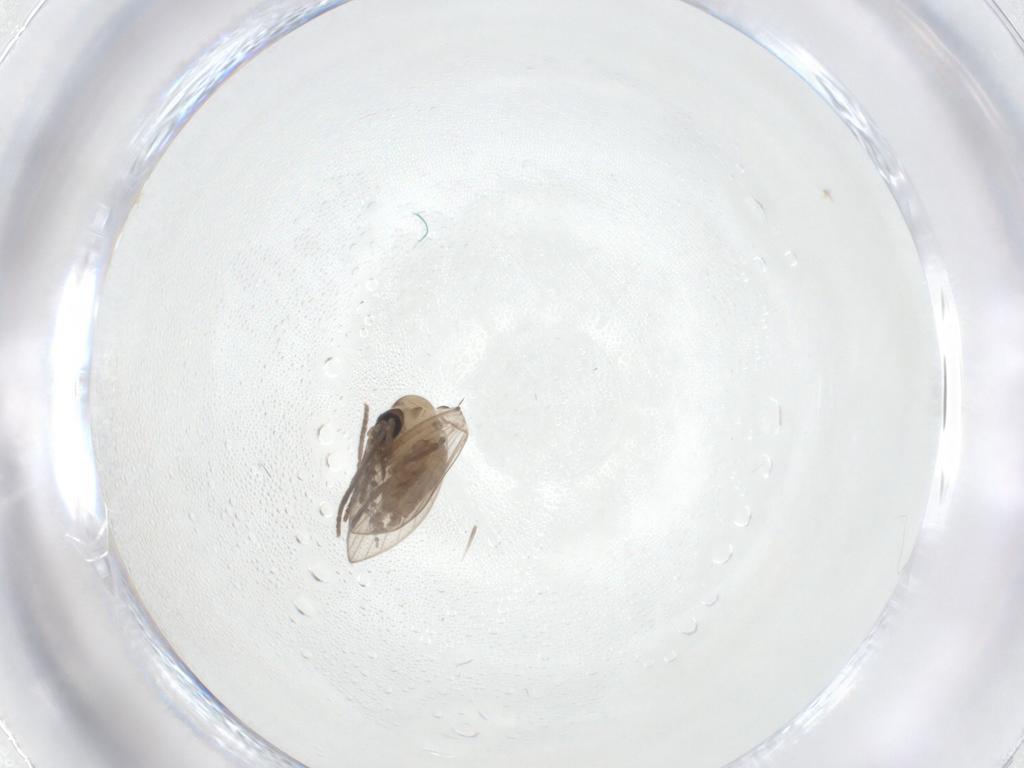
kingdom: Animalia
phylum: Arthropoda
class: Insecta
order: Diptera
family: Psychodidae
